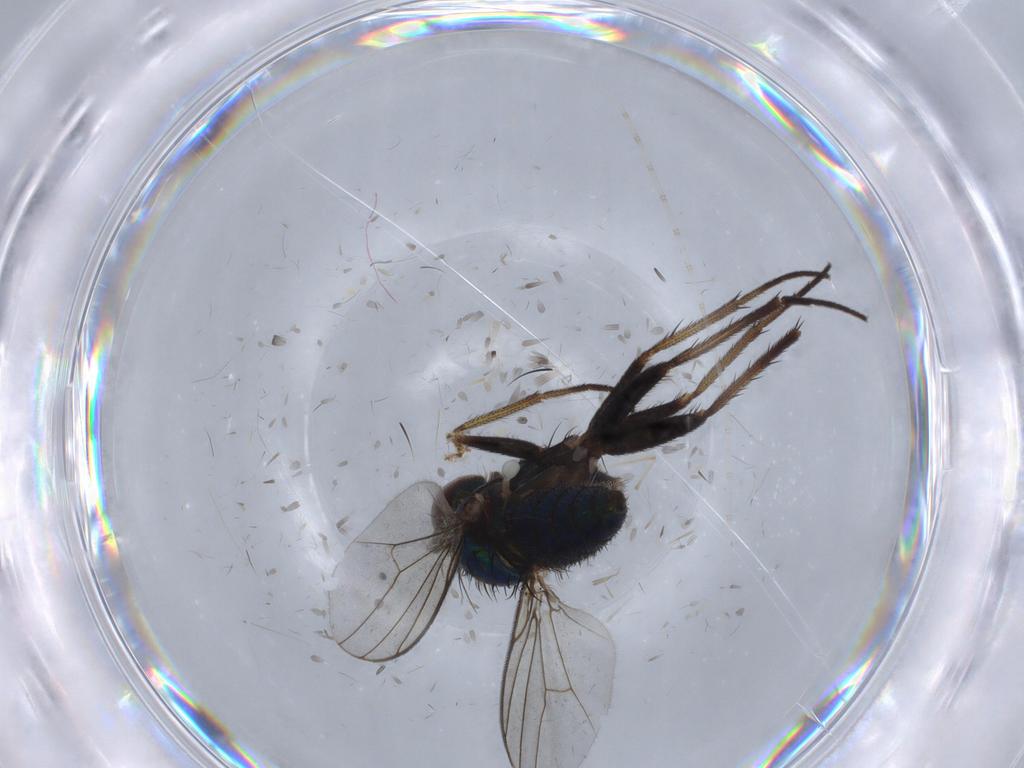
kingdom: Animalia
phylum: Arthropoda
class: Insecta
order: Diptera
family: Dolichopodidae
